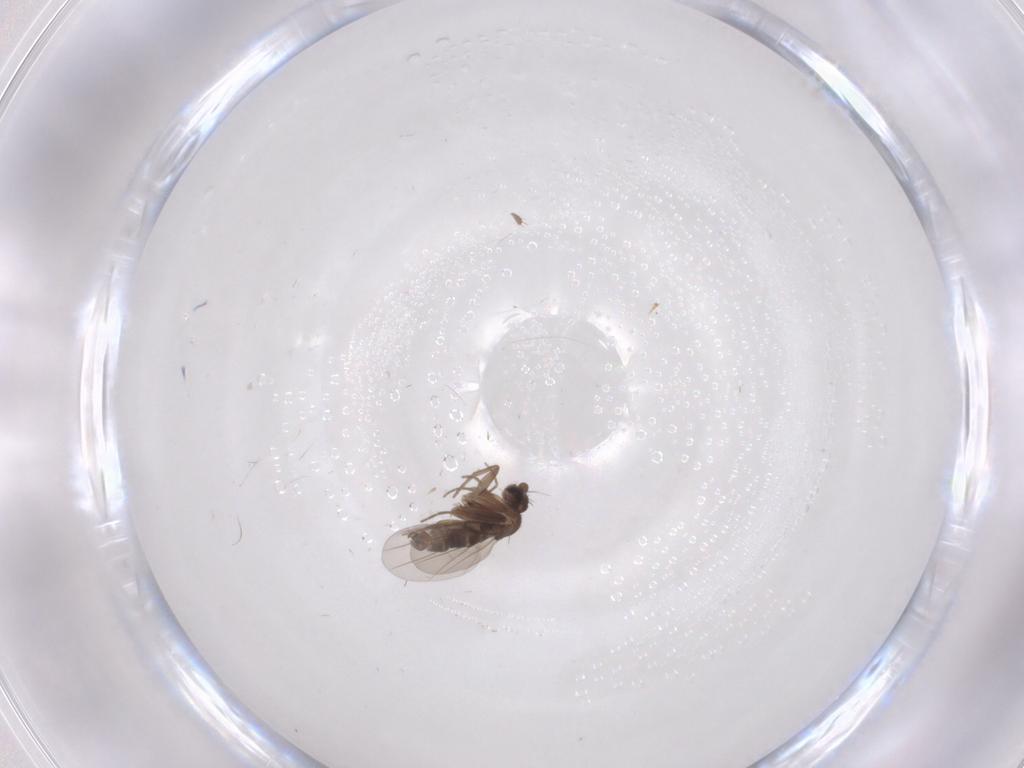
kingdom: Animalia
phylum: Arthropoda
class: Insecta
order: Diptera
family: Phoridae
